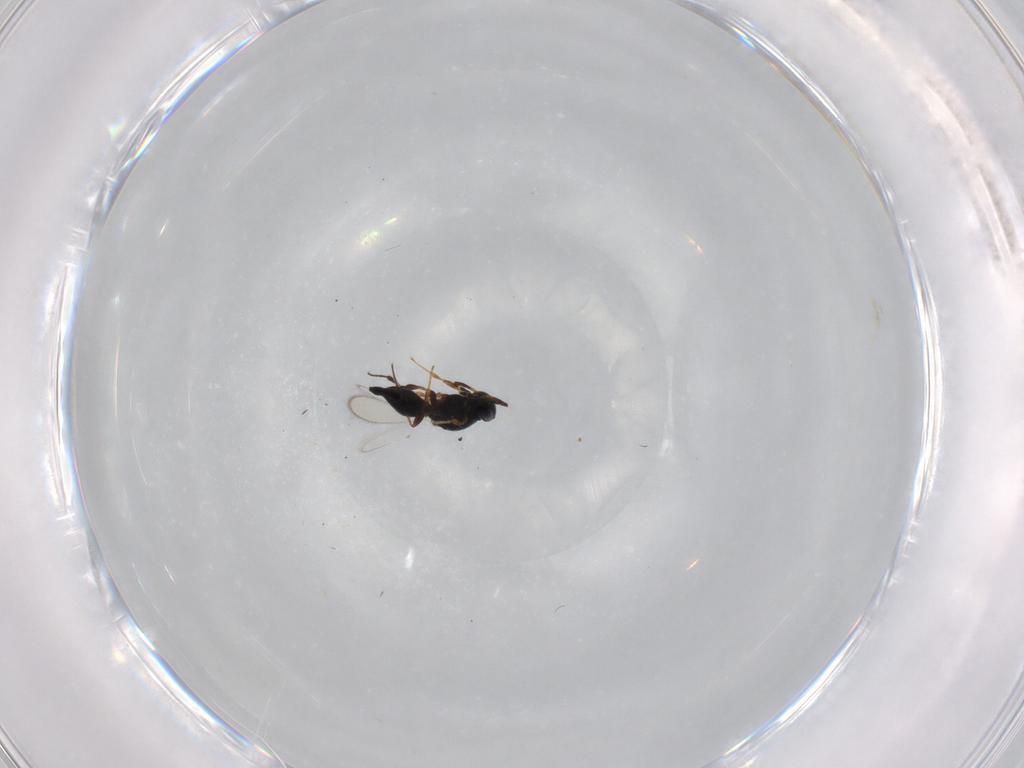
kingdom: Animalia
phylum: Arthropoda
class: Insecta
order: Hymenoptera
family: Platygastridae
